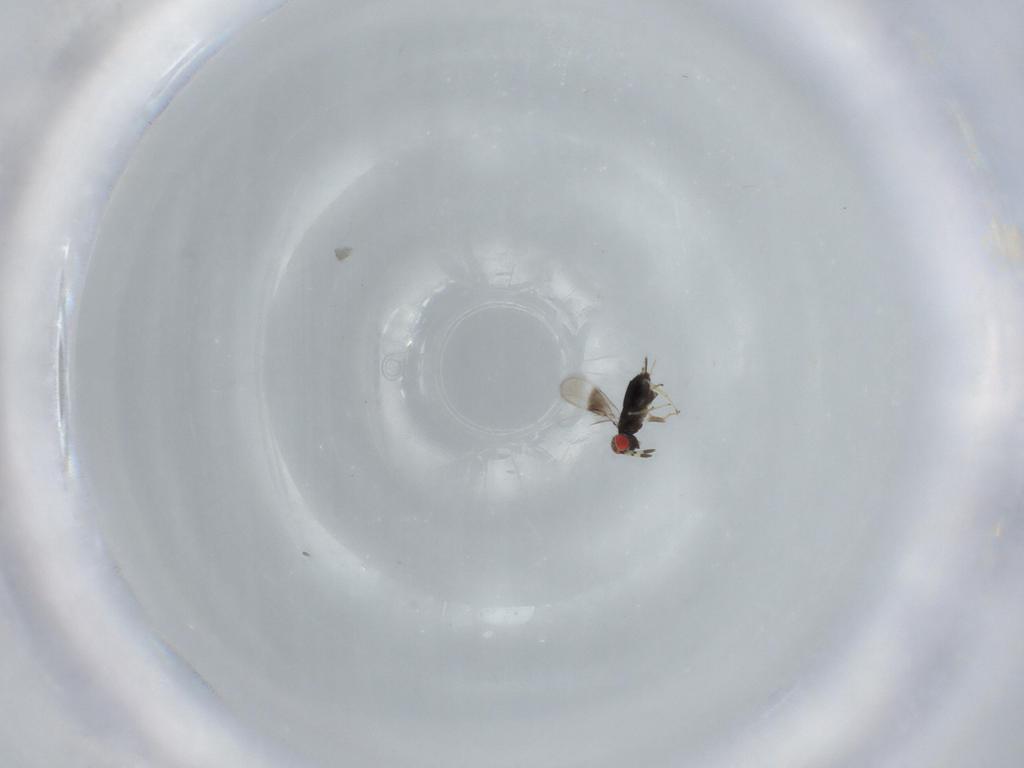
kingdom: Animalia
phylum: Arthropoda
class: Insecta
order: Hymenoptera
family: Azotidae
